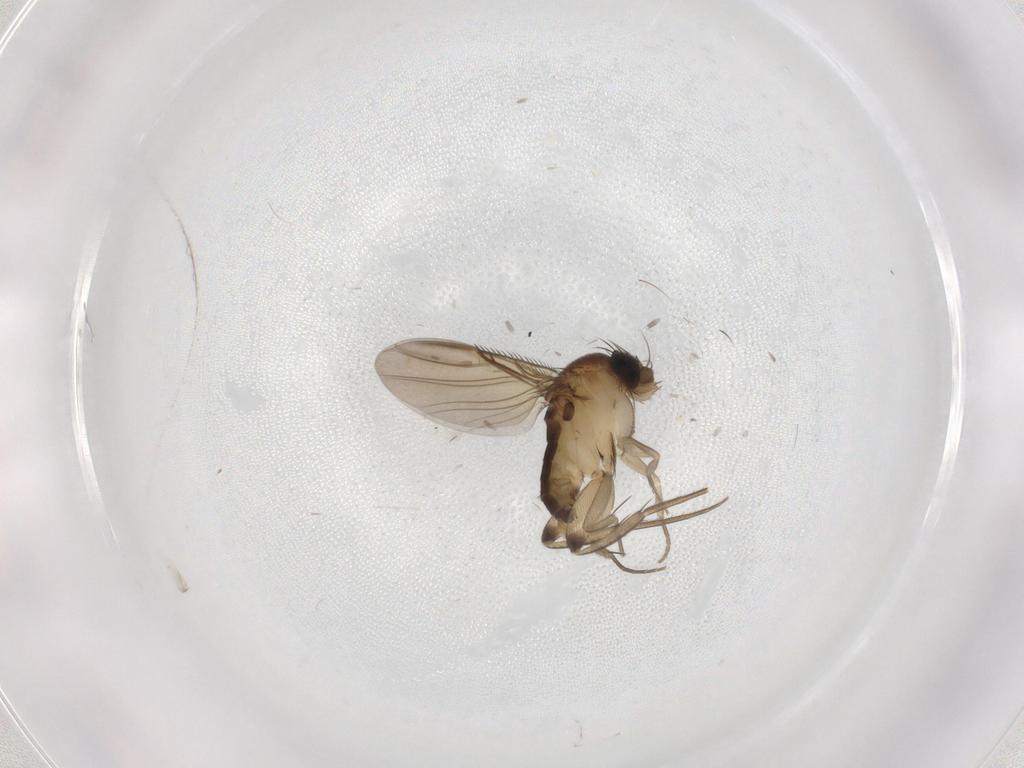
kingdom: Animalia
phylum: Arthropoda
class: Insecta
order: Diptera
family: Phoridae
